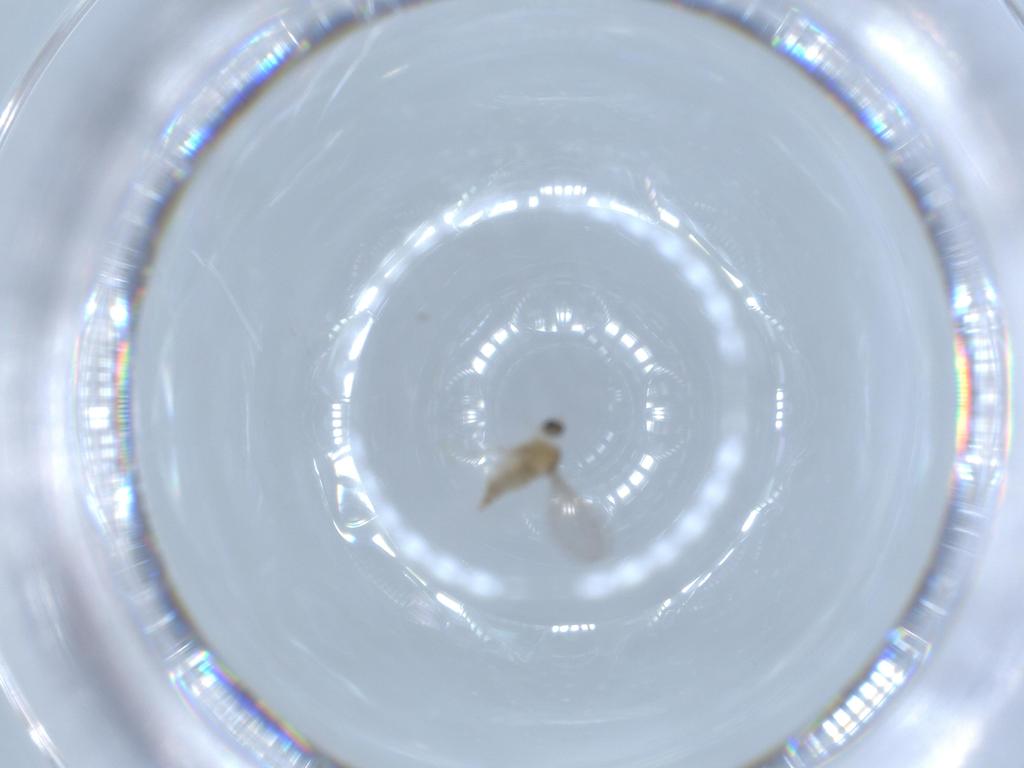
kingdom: Animalia
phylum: Arthropoda
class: Insecta
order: Diptera
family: Cecidomyiidae
